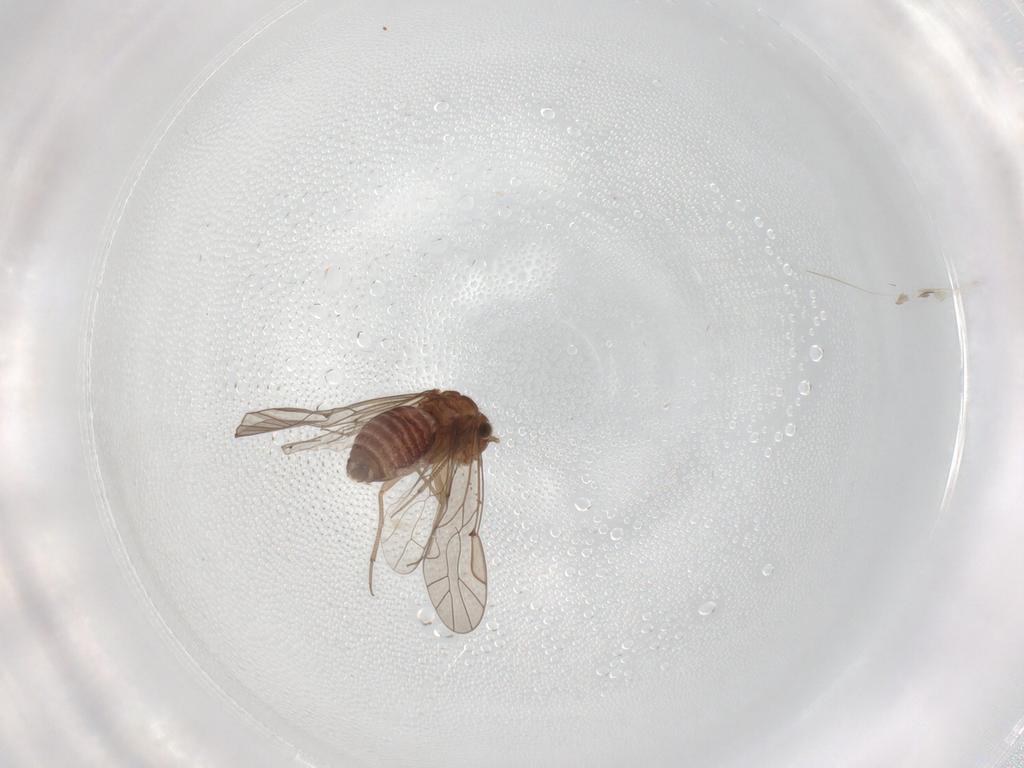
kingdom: Animalia
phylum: Arthropoda
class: Insecta
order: Psocodea
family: Lachesillidae
